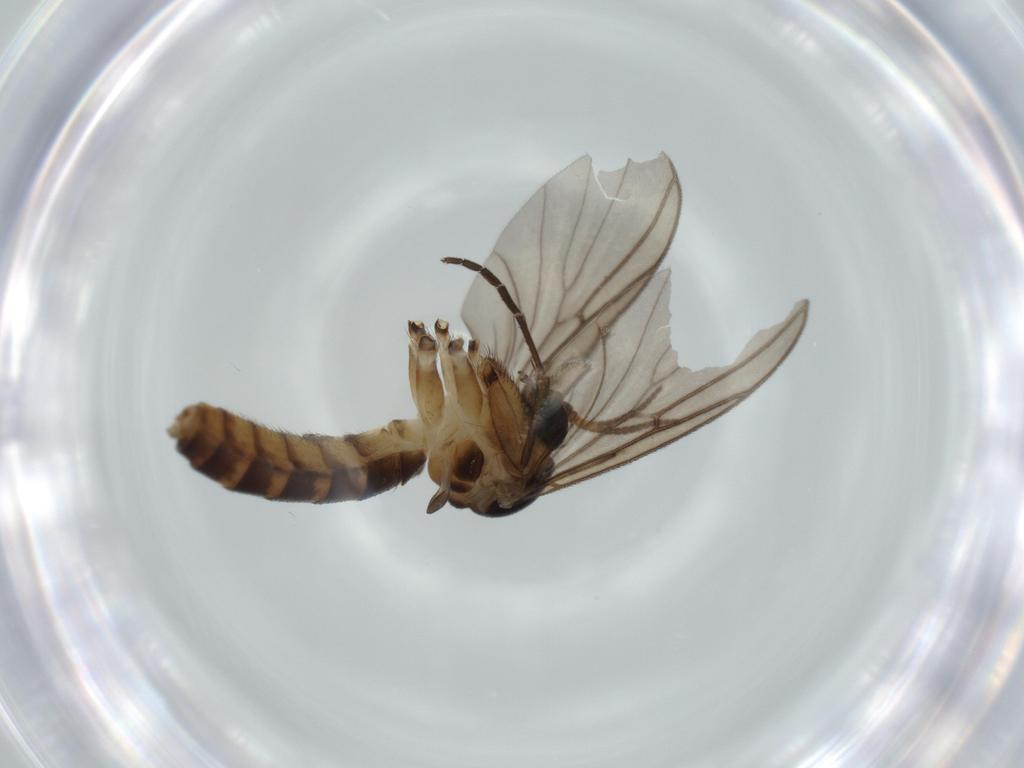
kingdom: Animalia
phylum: Arthropoda
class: Insecta
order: Diptera
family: Mycetophilidae
